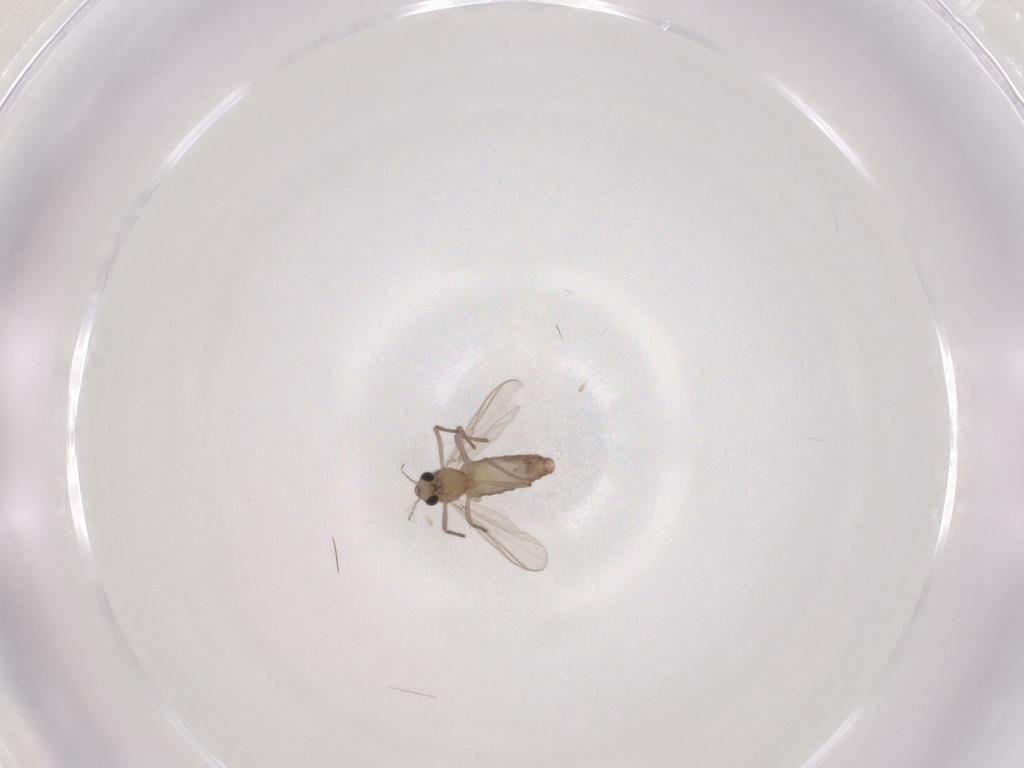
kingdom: Animalia
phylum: Arthropoda
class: Insecta
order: Diptera
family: Chironomidae
